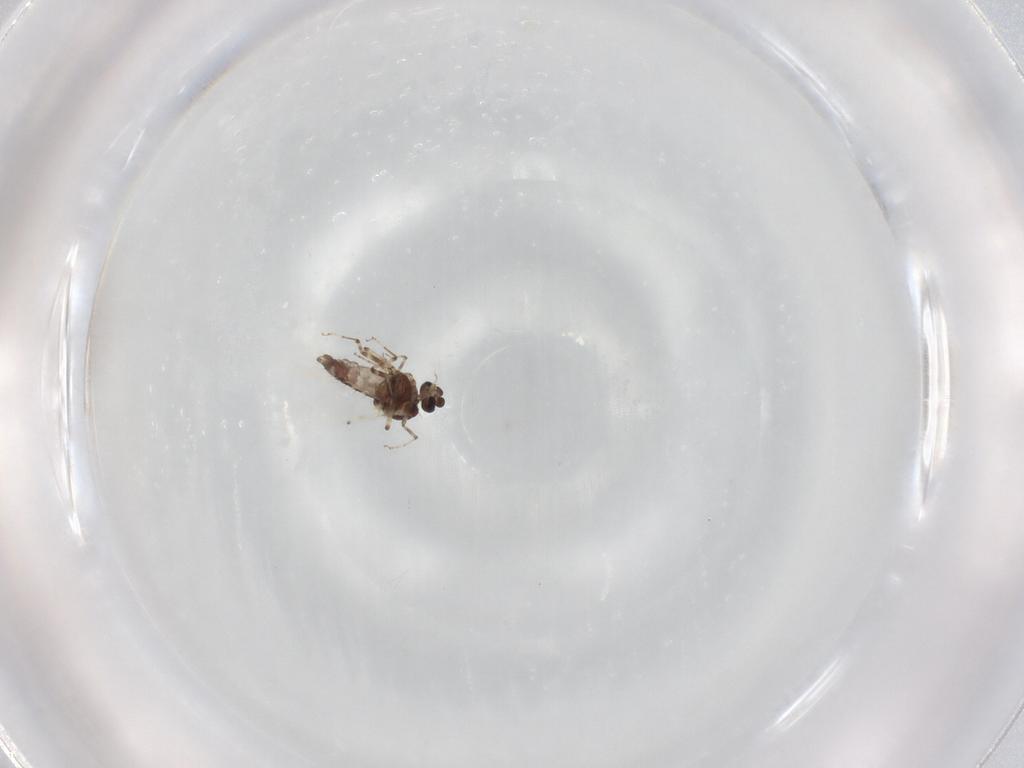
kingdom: Animalia
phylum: Arthropoda
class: Insecta
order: Diptera
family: Ceratopogonidae
